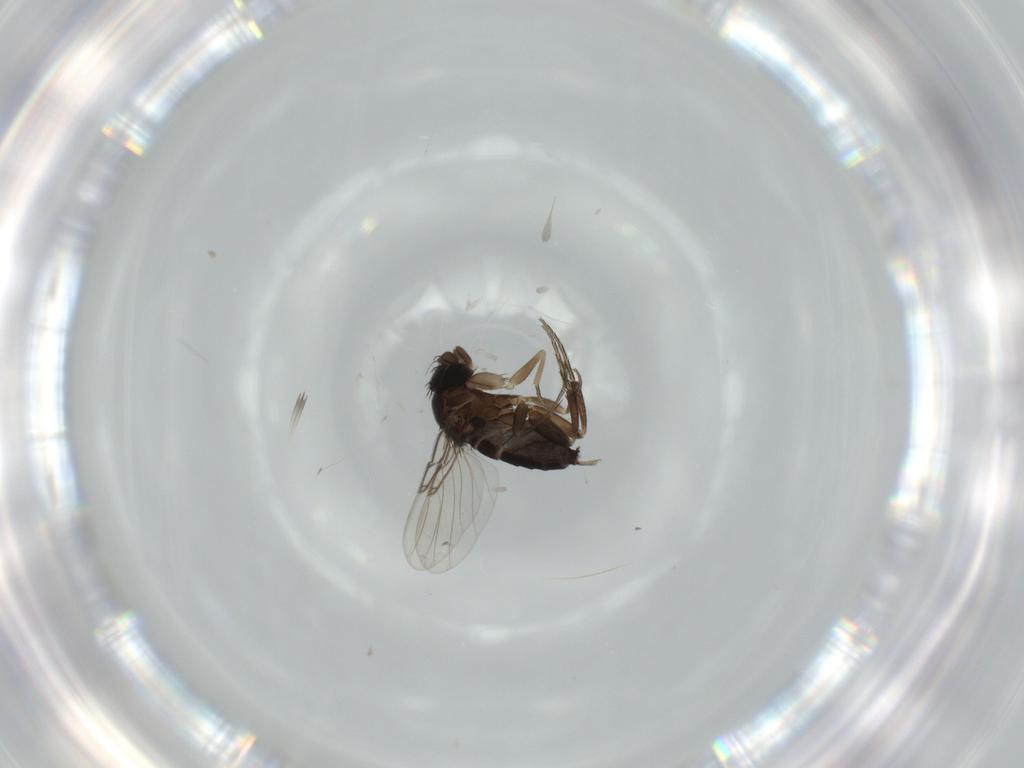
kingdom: Animalia
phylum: Arthropoda
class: Insecta
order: Diptera
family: Phoridae
